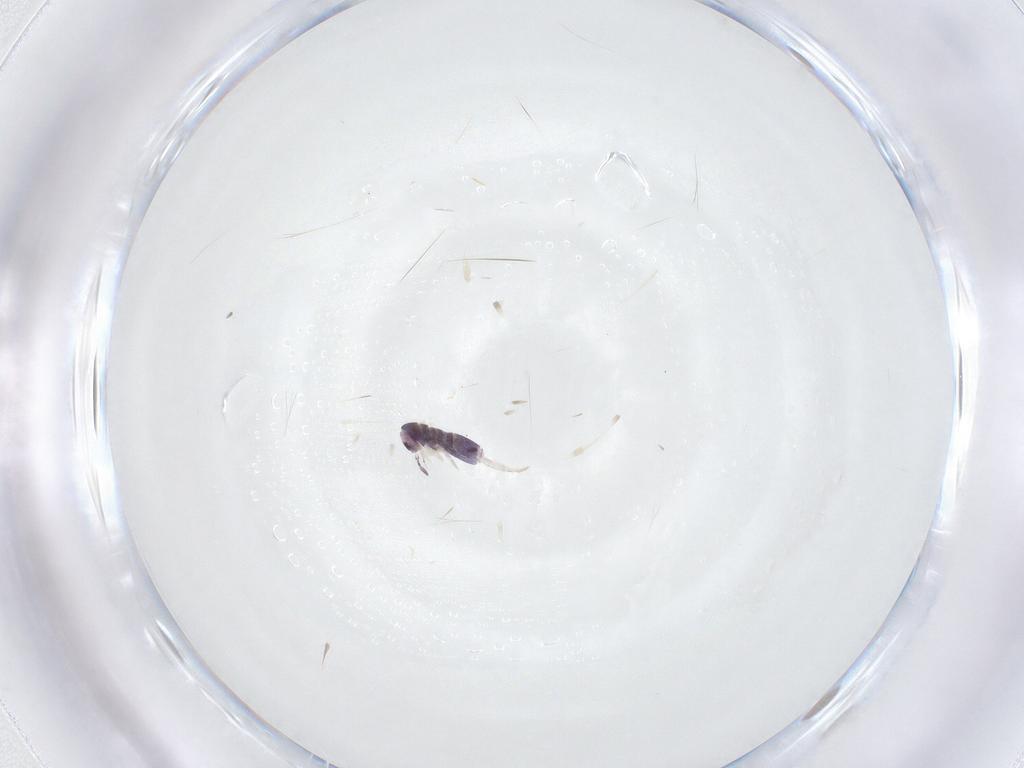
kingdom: Animalia
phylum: Arthropoda
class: Collembola
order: Entomobryomorpha
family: Entomobryidae
